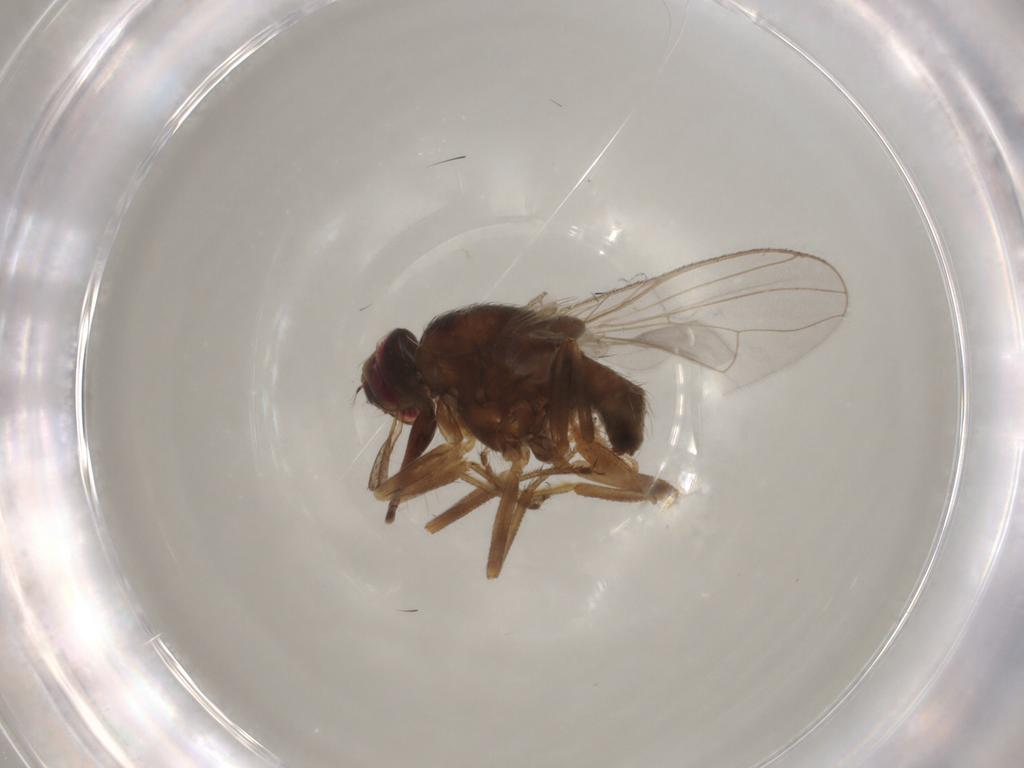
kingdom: Animalia
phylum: Arthropoda
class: Insecta
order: Diptera
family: Muscidae
